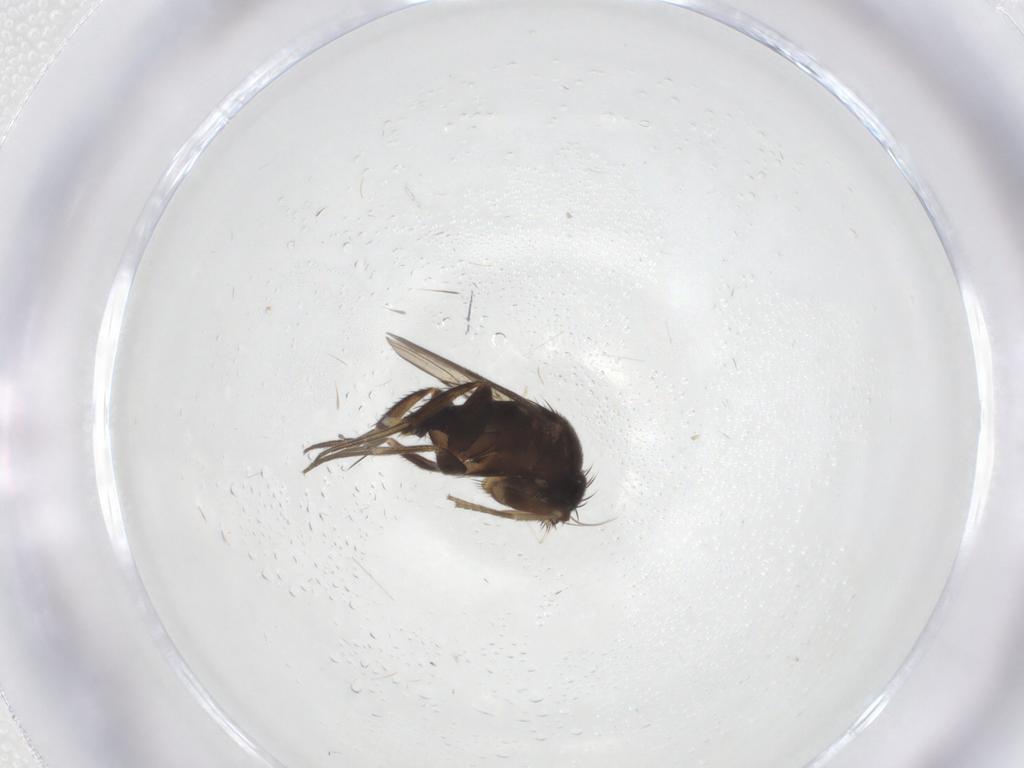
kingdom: Animalia
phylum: Arthropoda
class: Insecta
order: Diptera
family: Phoridae
